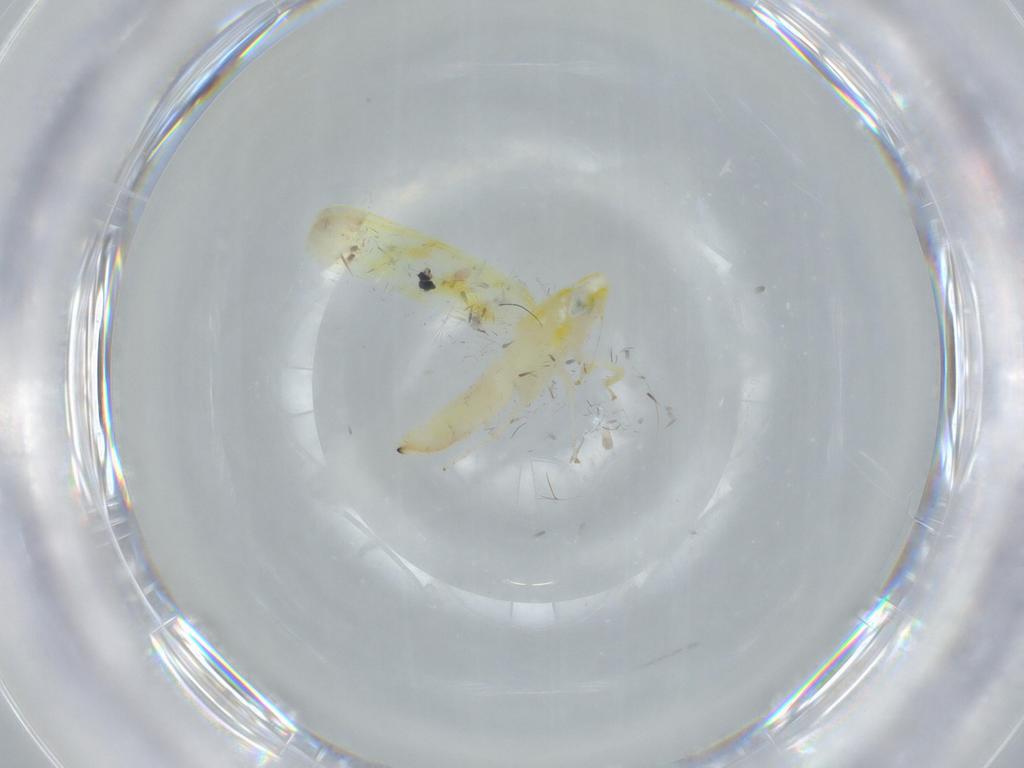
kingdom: Animalia
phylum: Arthropoda
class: Insecta
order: Hemiptera
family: Cicadellidae
